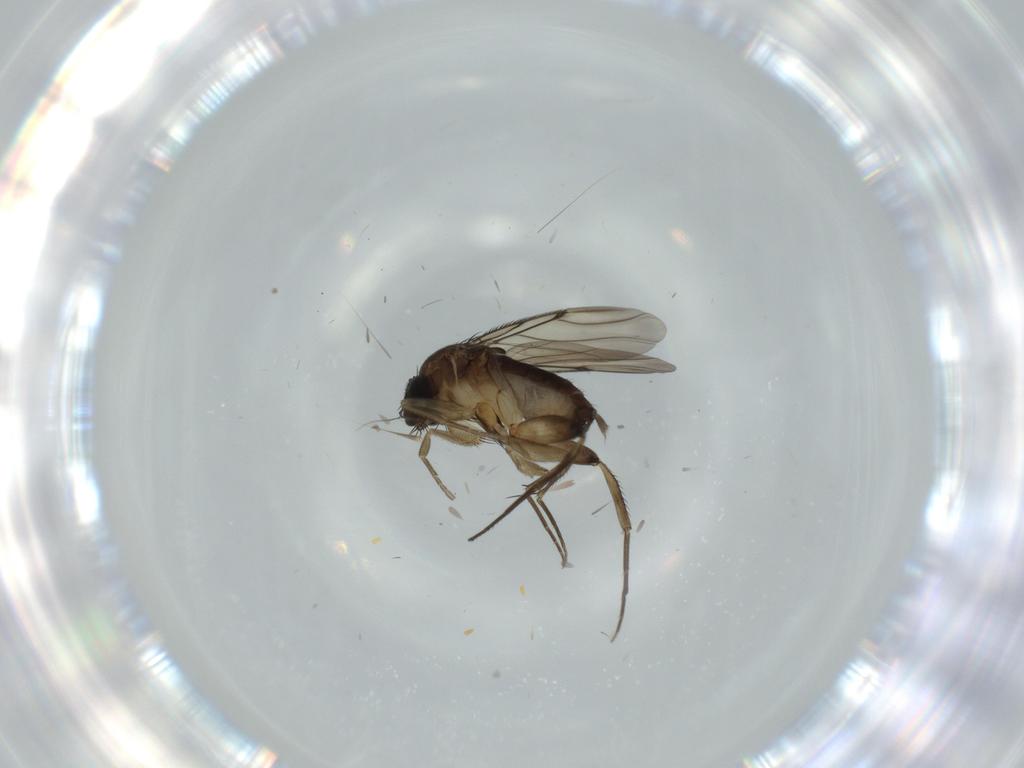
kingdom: Animalia
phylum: Arthropoda
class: Insecta
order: Diptera
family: Phoridae
